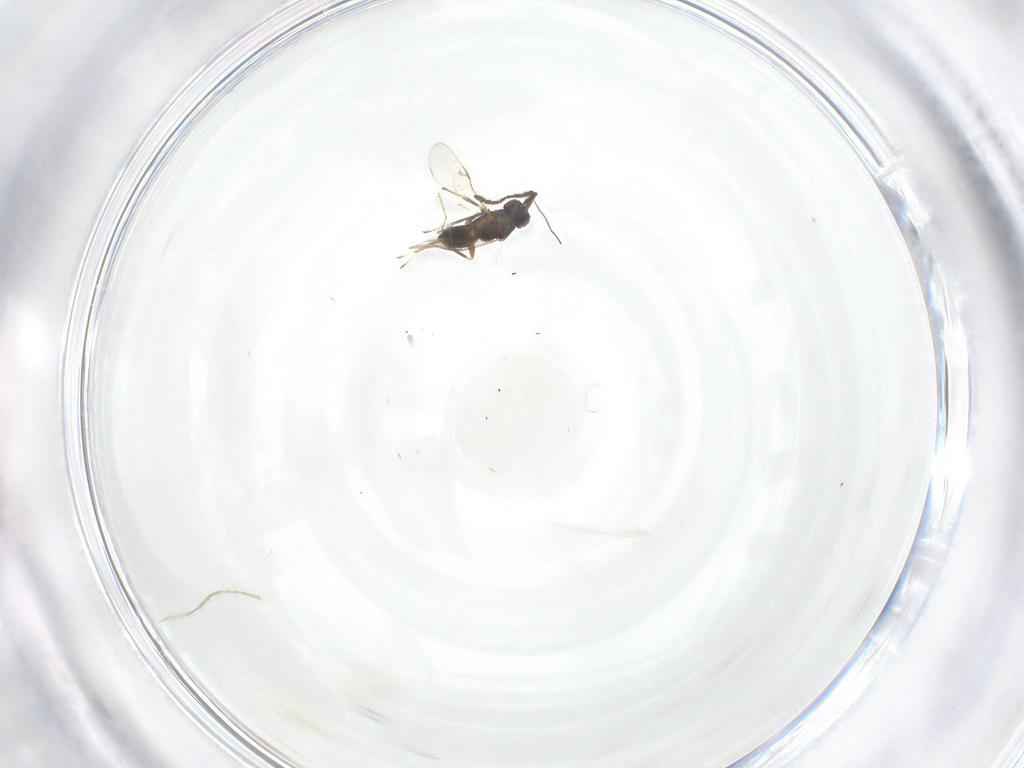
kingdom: Animalia
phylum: Arthropoda
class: Insecta
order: Hymenoptera
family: Encyrtidae
